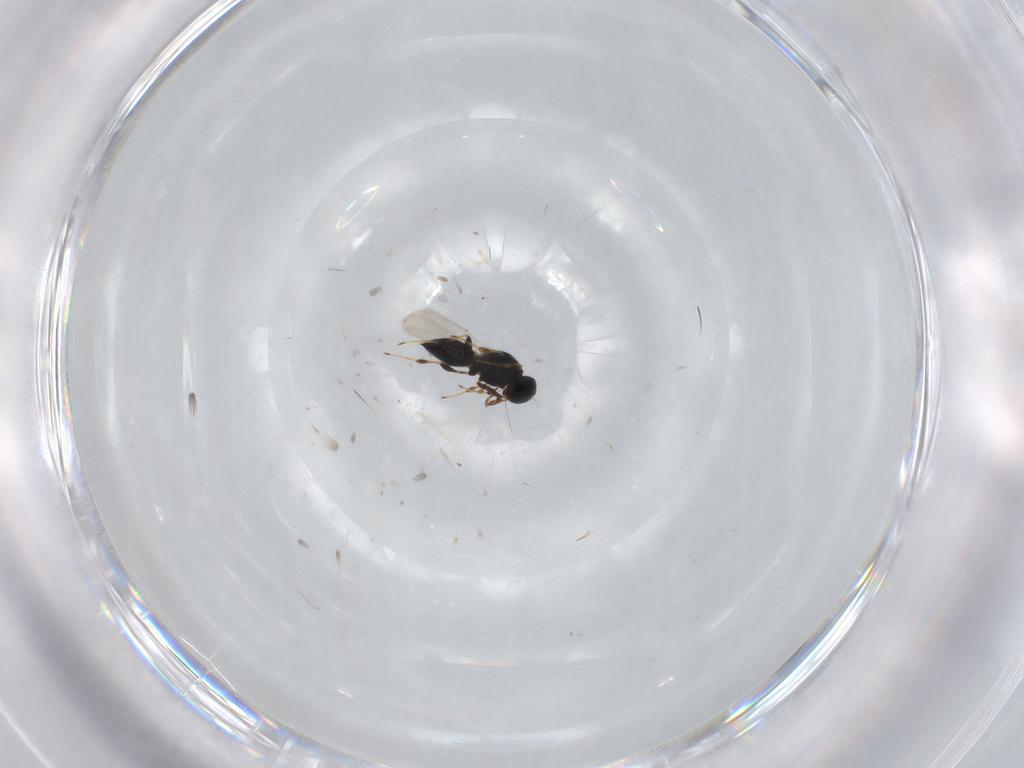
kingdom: Animalia
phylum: Arthropoda
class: Insecta
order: Hymenoptera
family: Platygastridae
